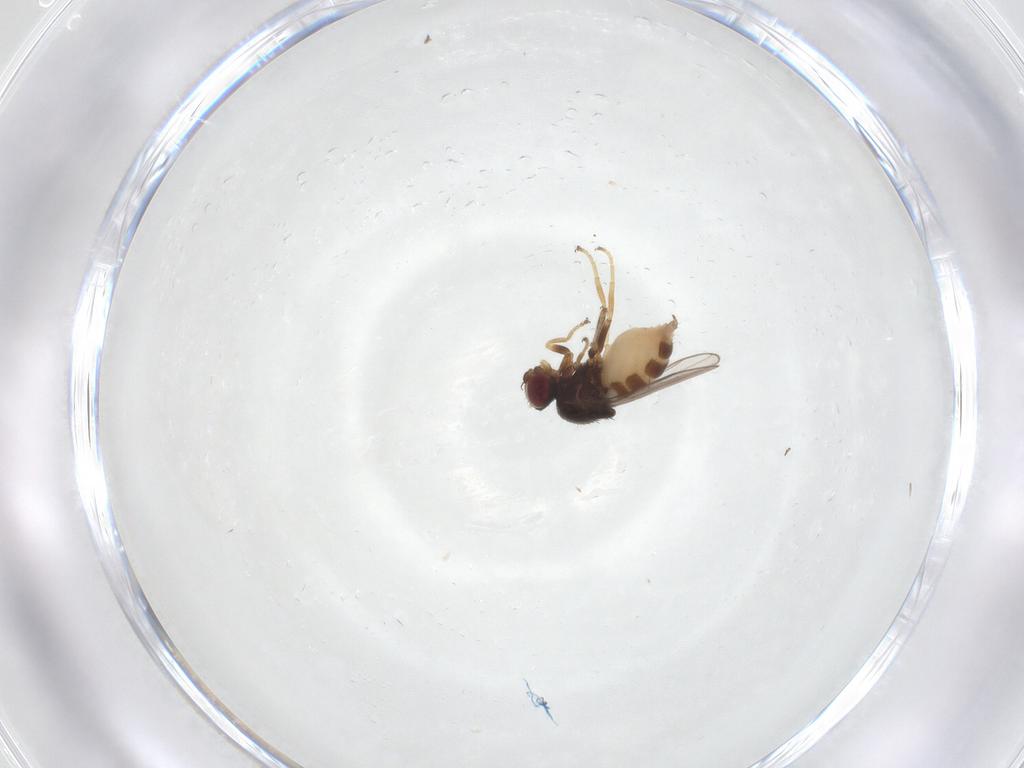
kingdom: Animalia
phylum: Arthropoda
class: Insecta
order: Diptera
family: Chloropidae
